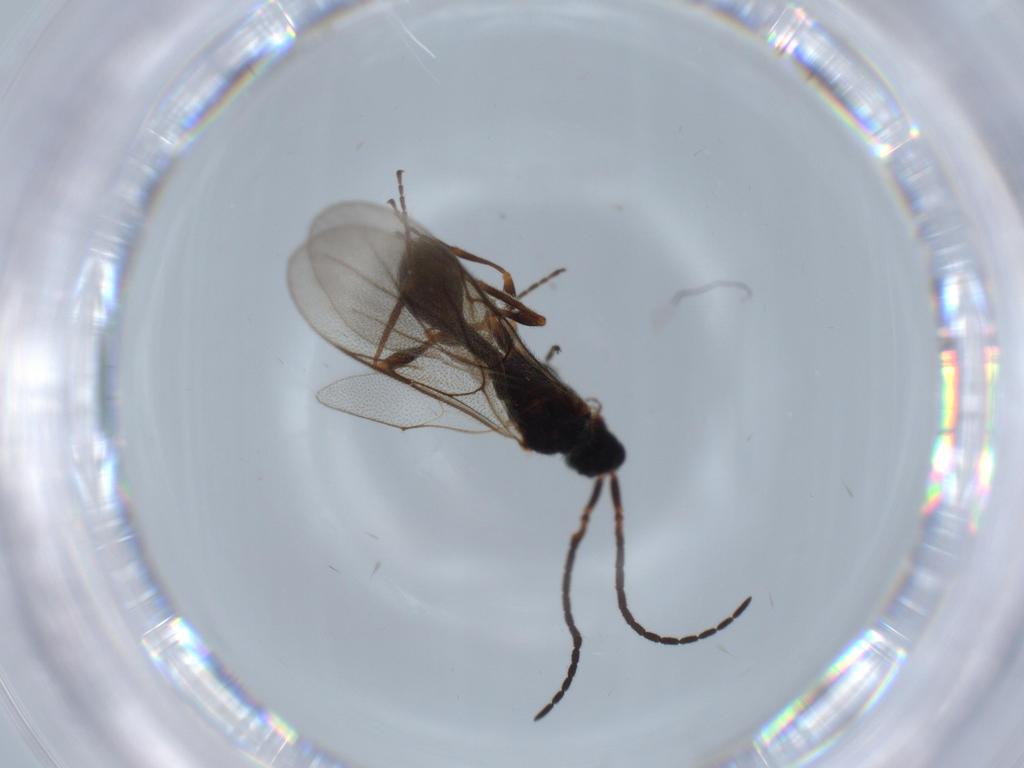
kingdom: Animalia
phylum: Arthropoda
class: Insecta
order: Hymenoptera
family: Diapriidae
